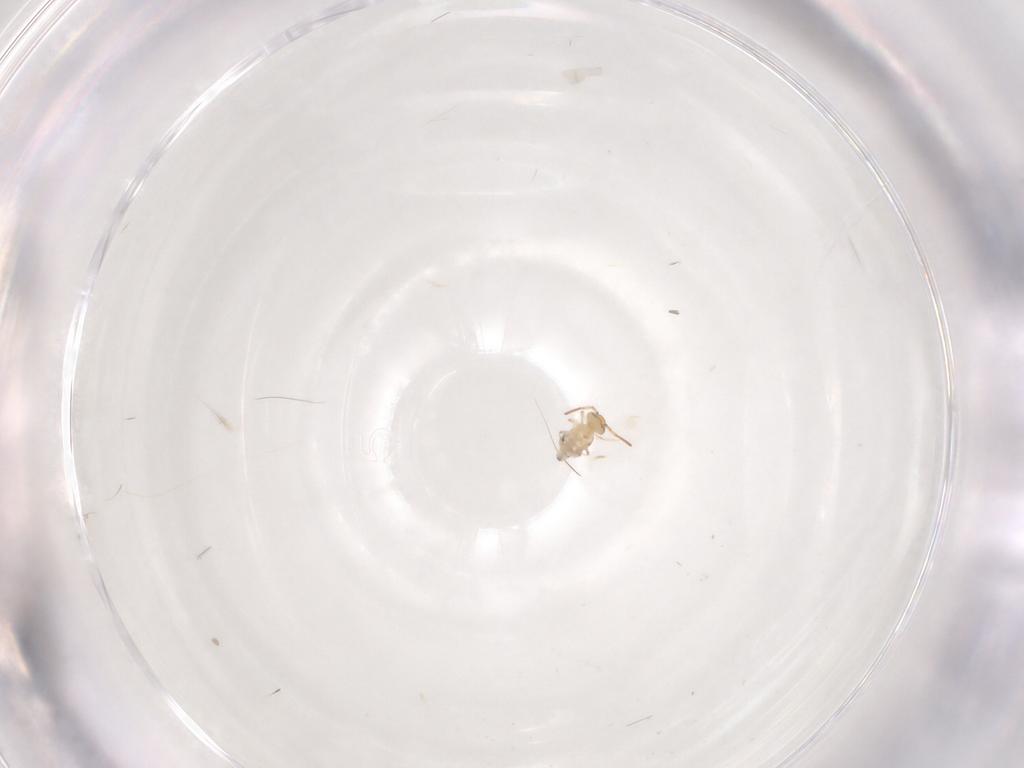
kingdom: Animalia
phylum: Arthropoda
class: Collembola
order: Symphypleona
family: Bourletiellidae
